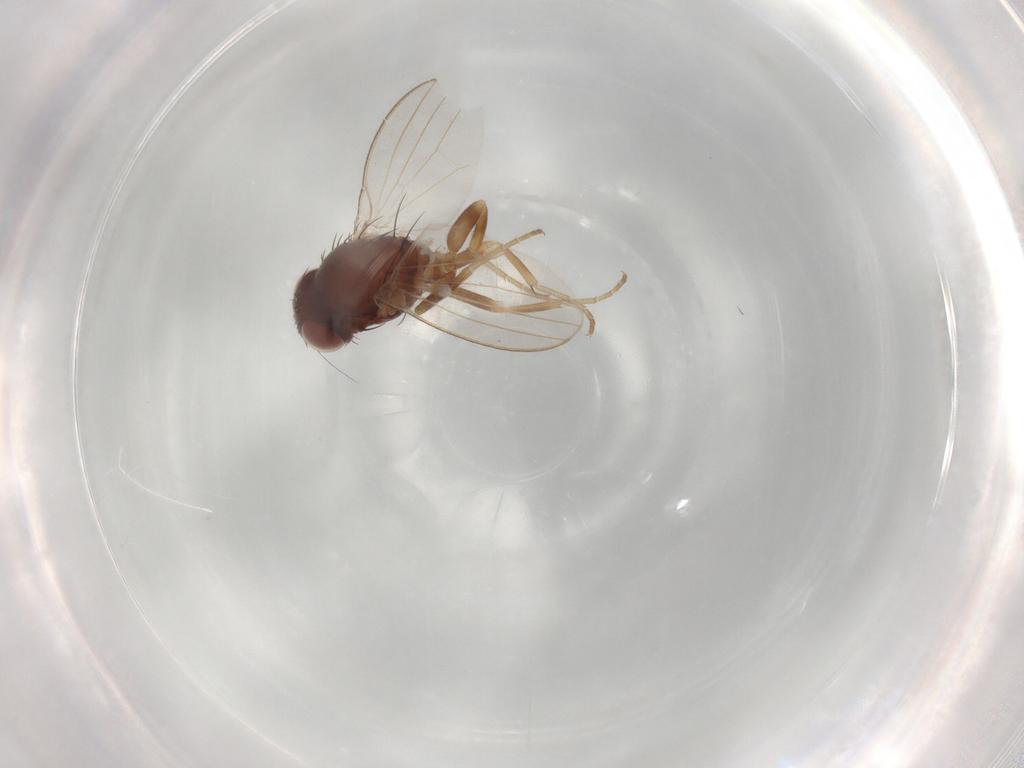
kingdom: Animalia
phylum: Arthropoda
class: Insecta
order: Diptera
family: Milichiidae
